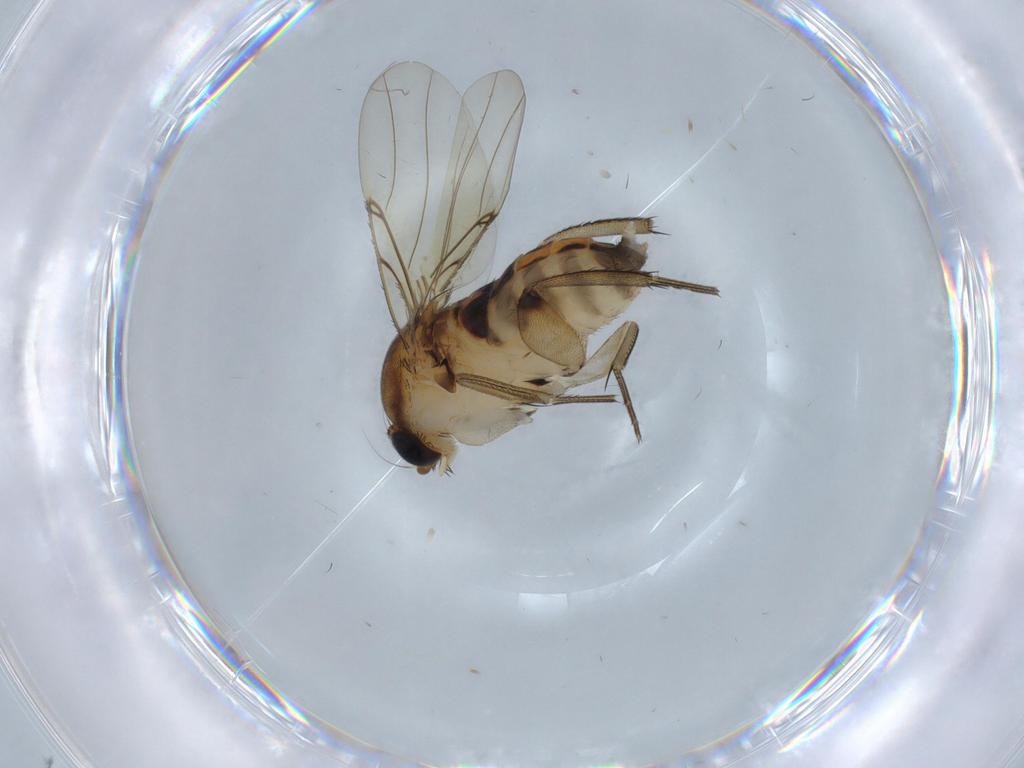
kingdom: Animalia
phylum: Arthropoda
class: Insecta
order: Diptera
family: Phoridae
